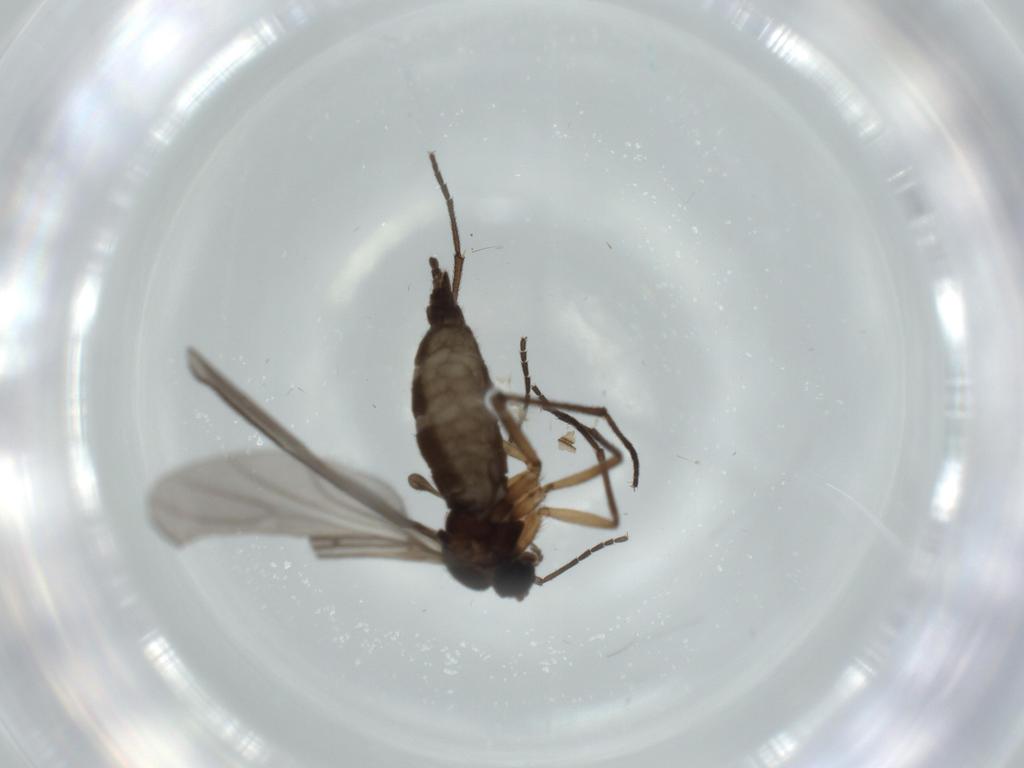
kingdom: Animalia
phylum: Arthropoda
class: Insecta
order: Diptera
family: Sciaridae
